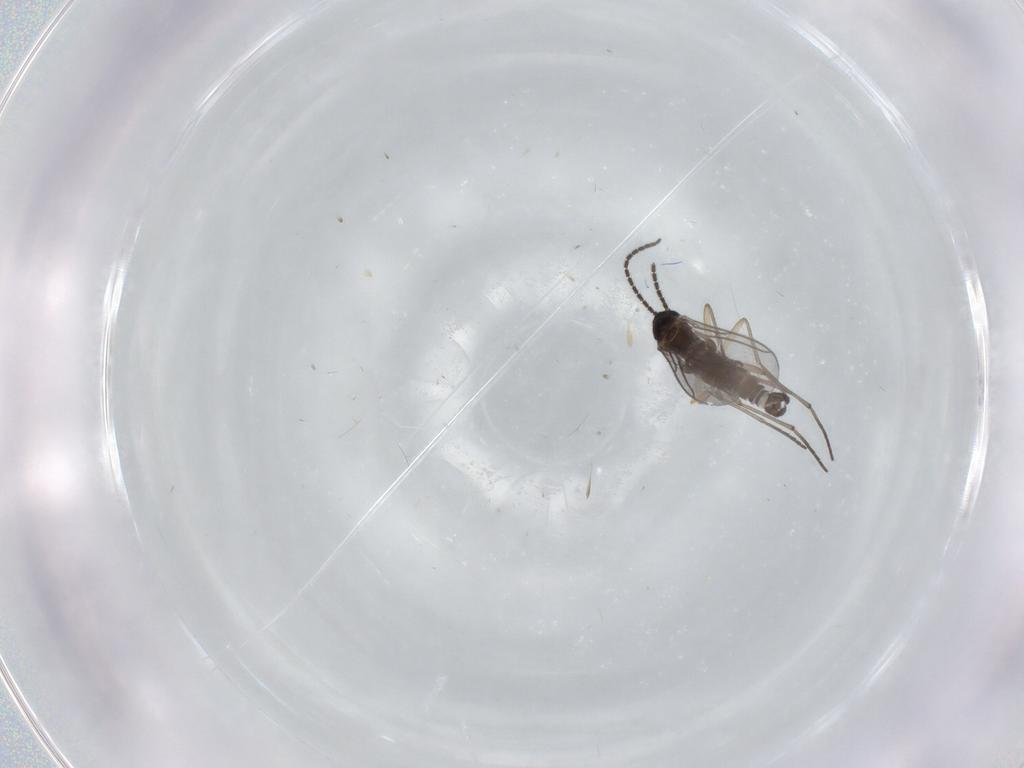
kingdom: Animalia
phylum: Arthropoda
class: Insecta
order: Diptera
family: Sciaridae
